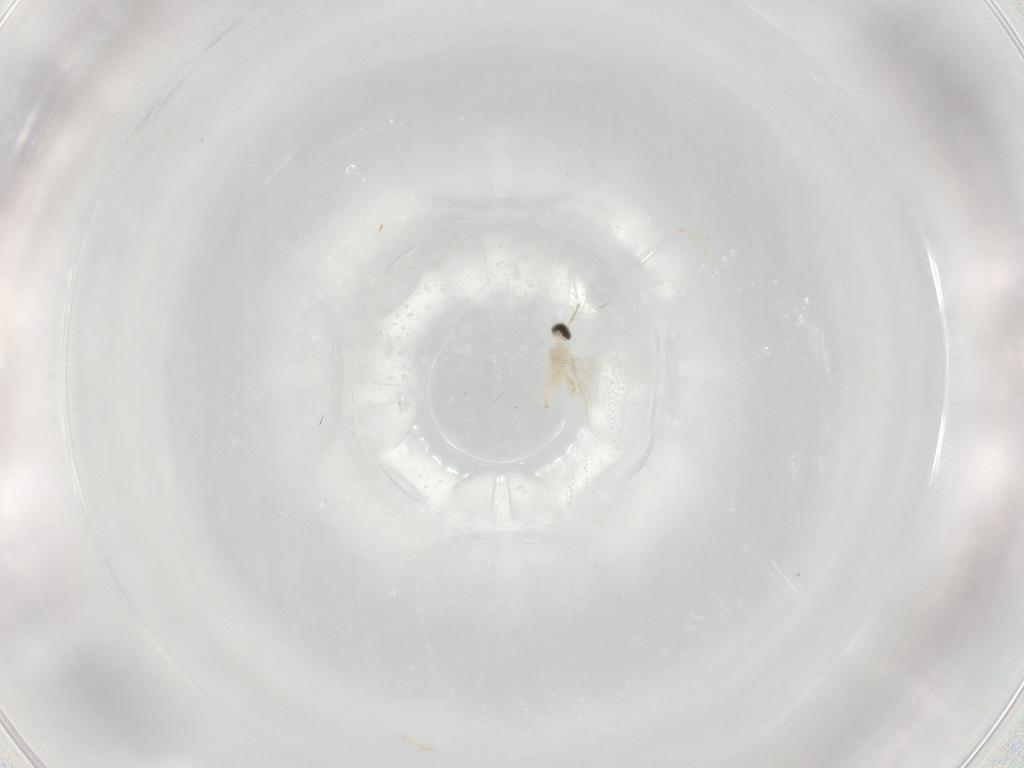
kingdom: Animalia
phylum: Arthropoda
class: Insecta
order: Diptera
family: Cecidomyiidae
